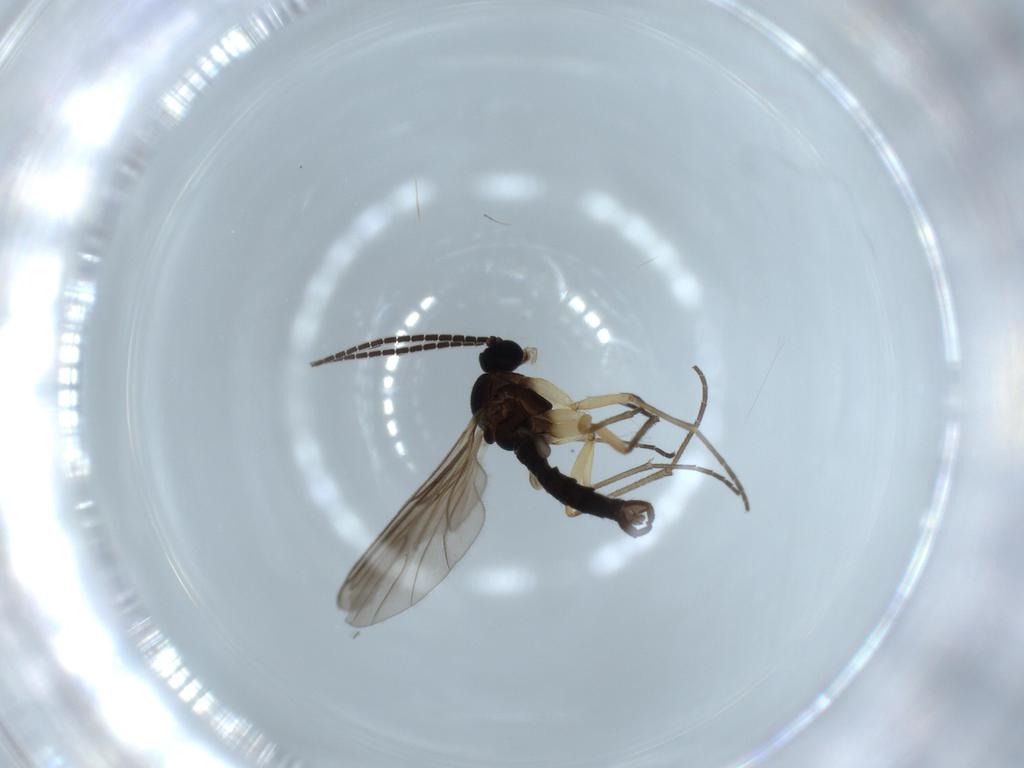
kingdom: Animalia
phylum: Arthropoda
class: Insecta
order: Diptera
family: Sciaridae
